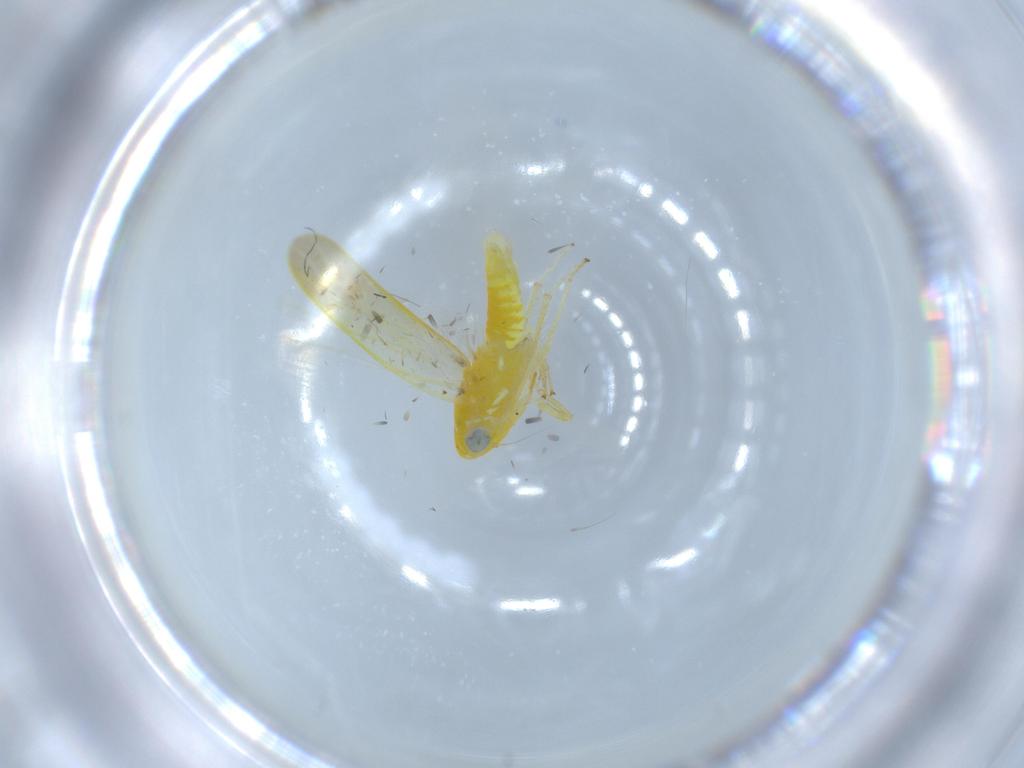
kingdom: Animalia
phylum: Arthropoda
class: Insecta
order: Hemiptera
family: Cicadellidae
